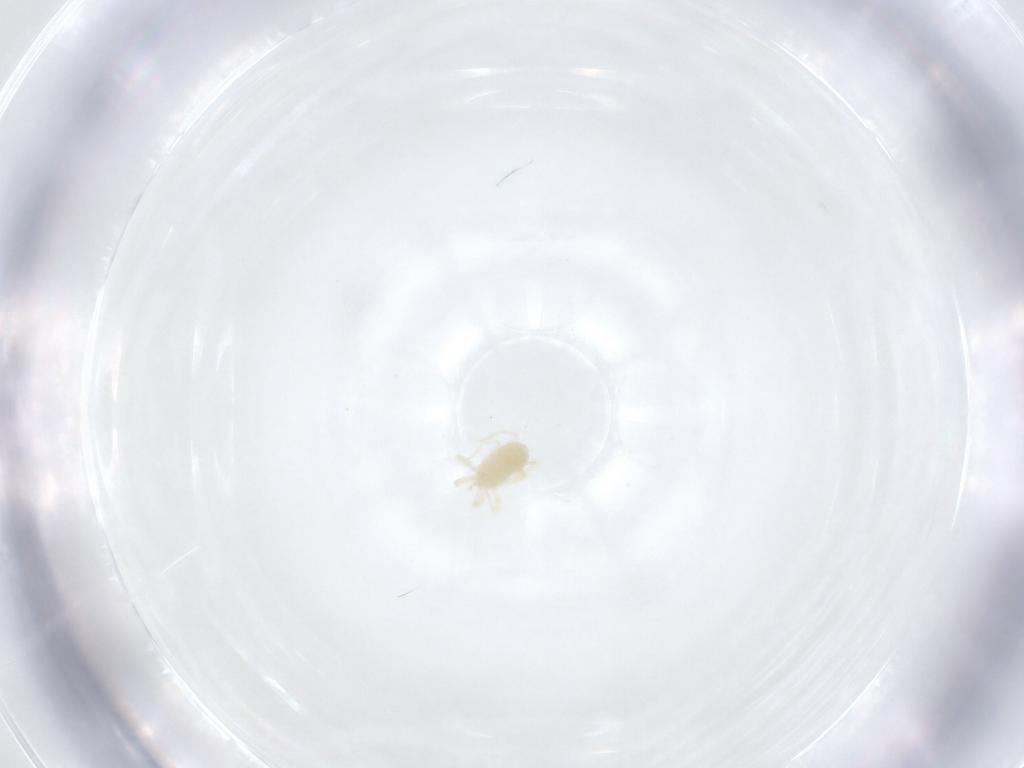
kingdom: Animalia
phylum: Arthropoda
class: Arachnida
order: Trombidiformes
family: Anystidae
